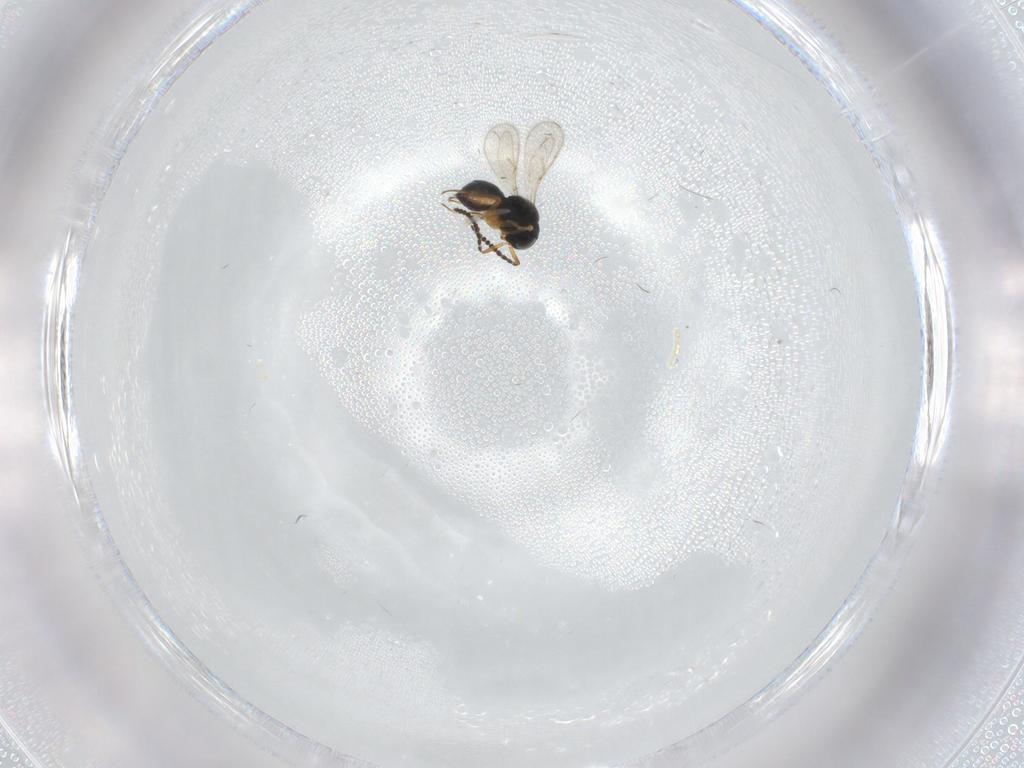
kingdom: Animalia
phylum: Arthropoda
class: Insecta
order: Hymenoptera
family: Scelionidae
